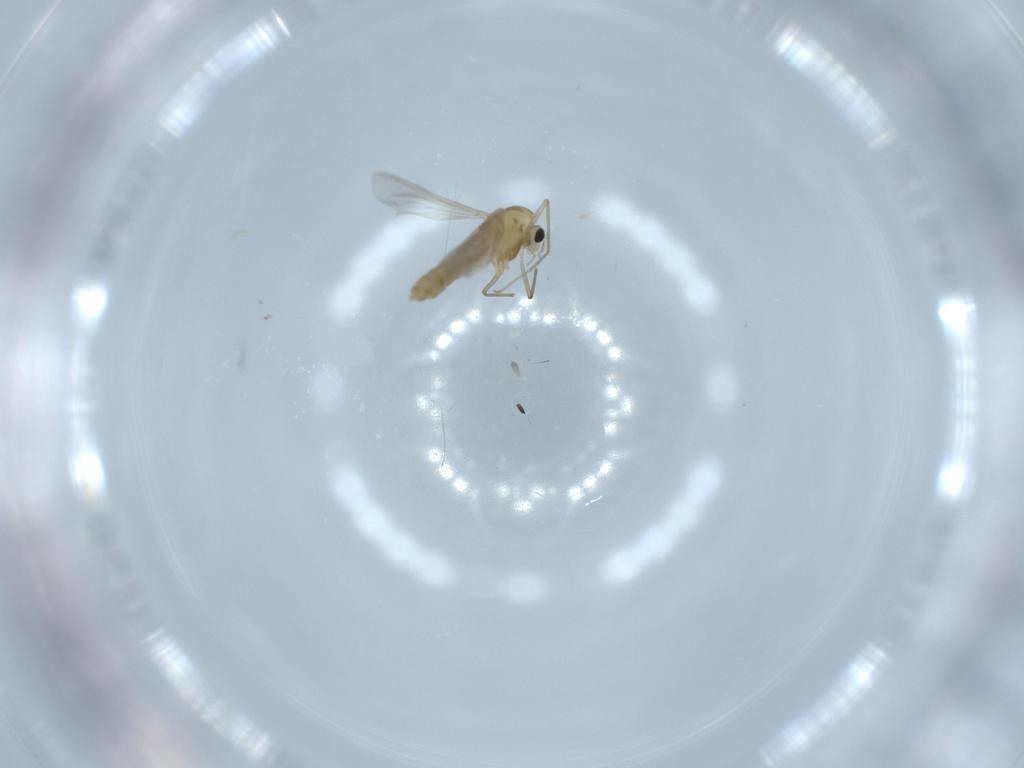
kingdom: Animalia
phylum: Arthropoda
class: Insecta
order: Diptera
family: Chironomidae
